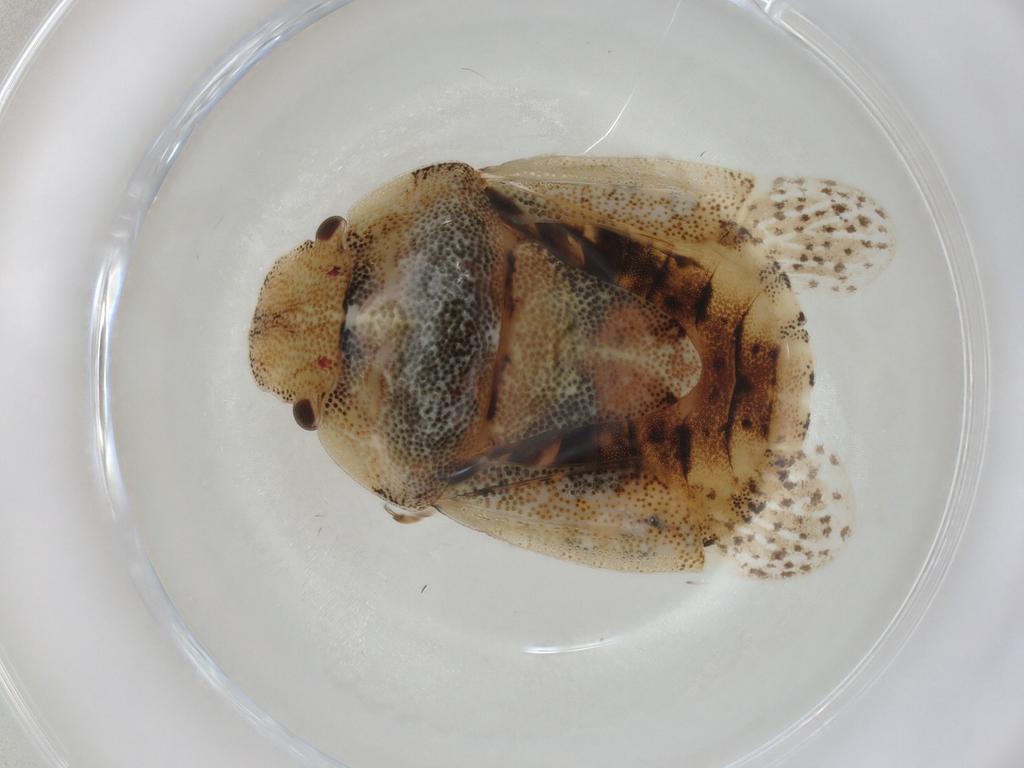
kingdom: Animalia
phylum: Arthropoda
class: Insecta
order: Hemiptera
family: Pentatomidae
